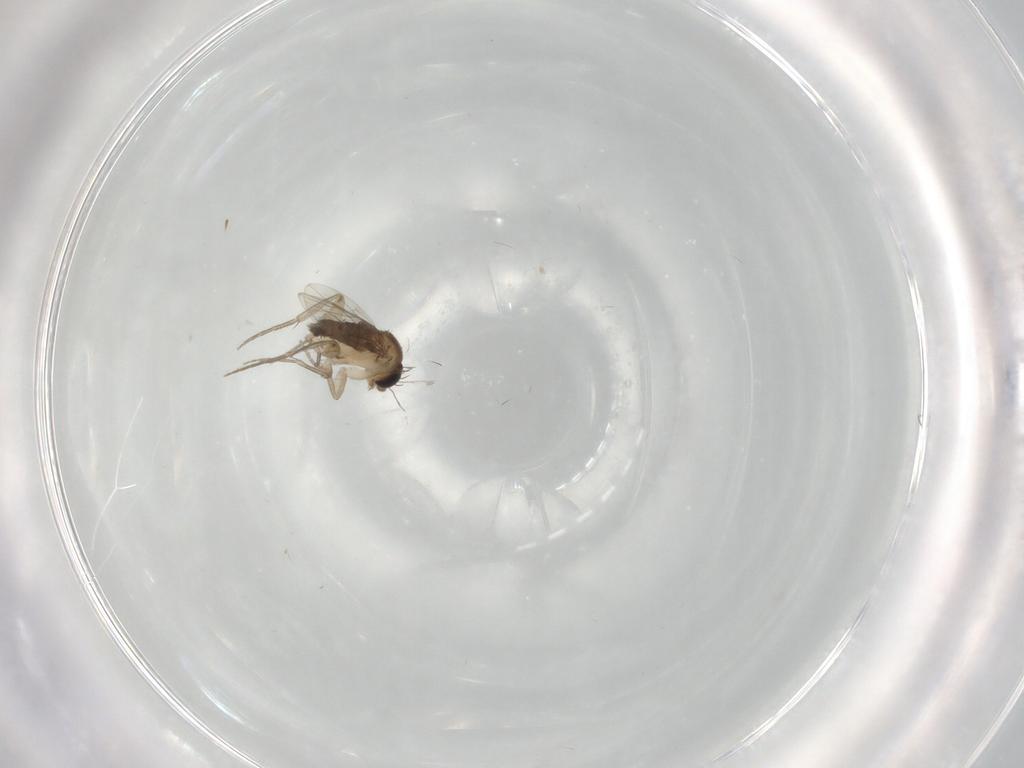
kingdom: Animalia
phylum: Arthropoda
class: Insecta
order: Diptera
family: Phoridae
